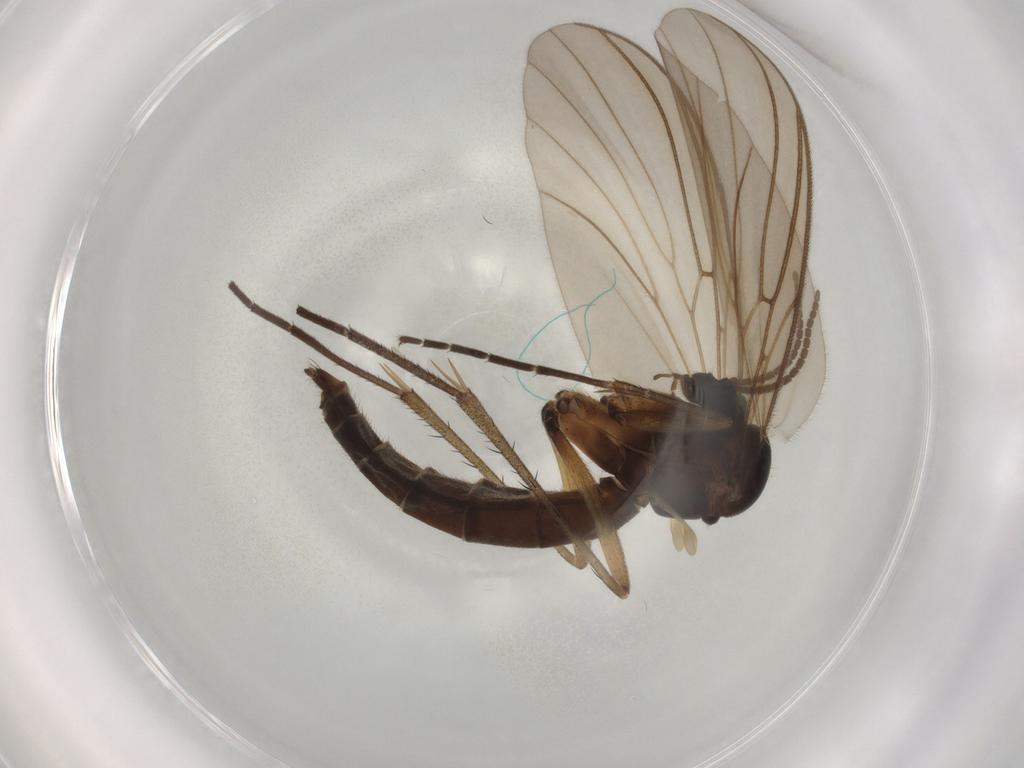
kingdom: Animalia
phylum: Arthropoda
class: Insecta
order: Diptera
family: Mycetophilidae
